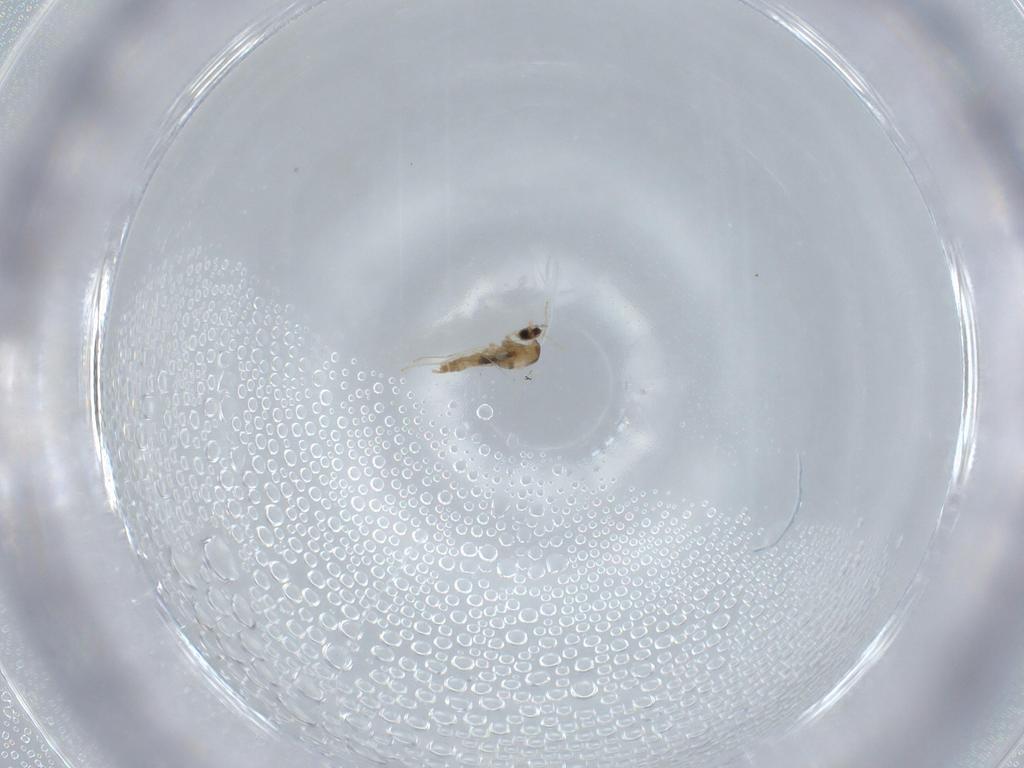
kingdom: Animalia
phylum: Arthropoda
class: Insecta
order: Diptera
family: Cecidomyiidae
